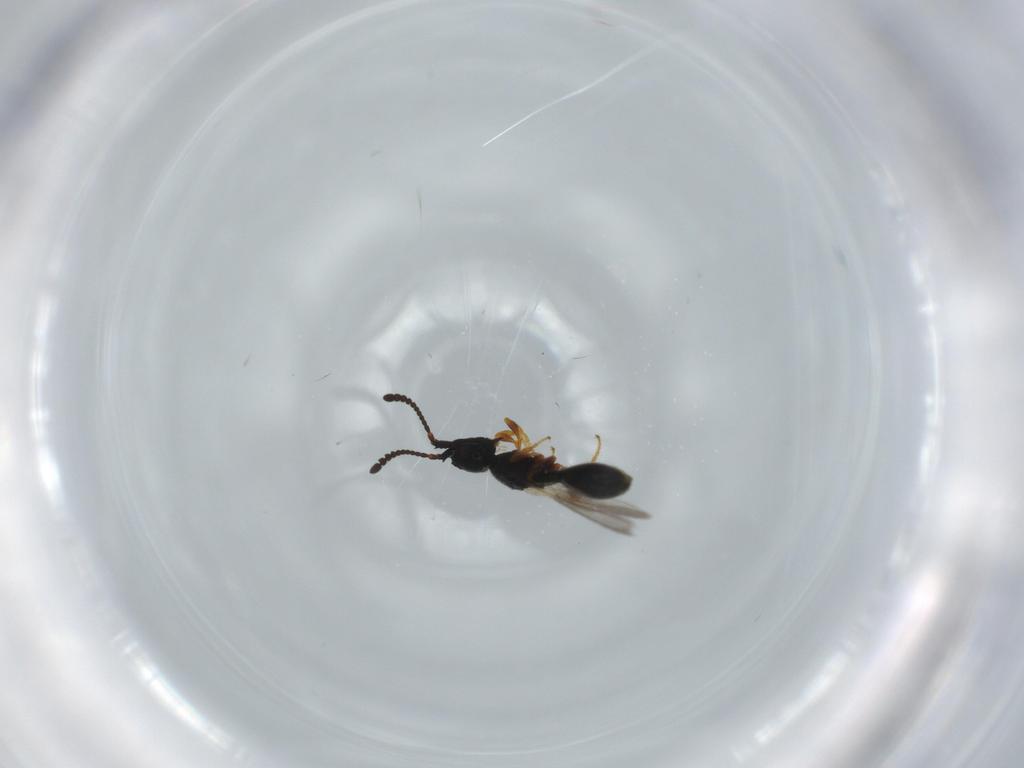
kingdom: Animalia
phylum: Arthropoda
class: Insecta
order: Hymenoptera
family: Diapriidae
